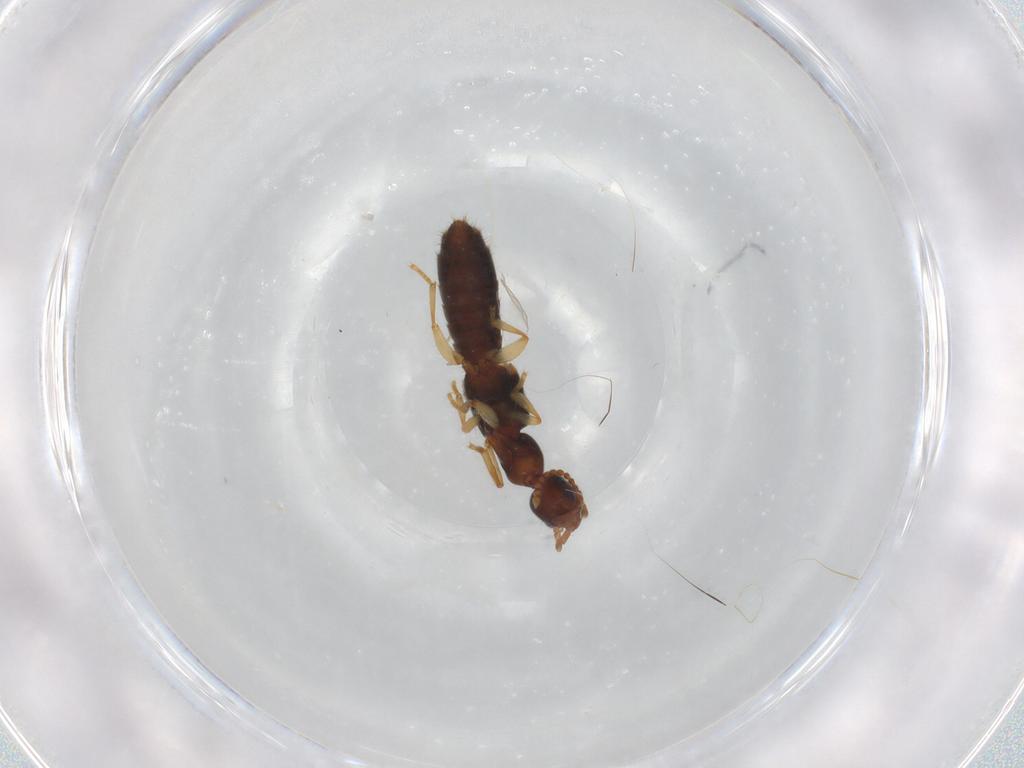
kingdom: Animalia
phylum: Arthropoda
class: Insecta
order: Coleoptera
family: Staphylinidae
